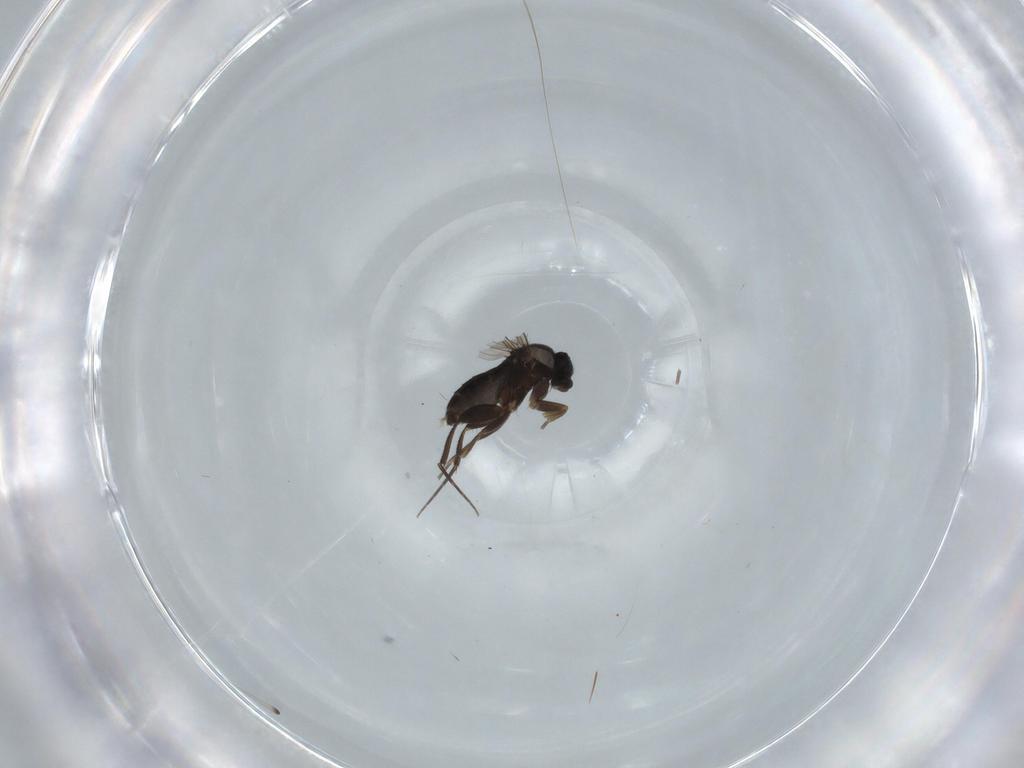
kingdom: Animalia
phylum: Arthropoda
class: Insecta
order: Diptera
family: Phoridae
